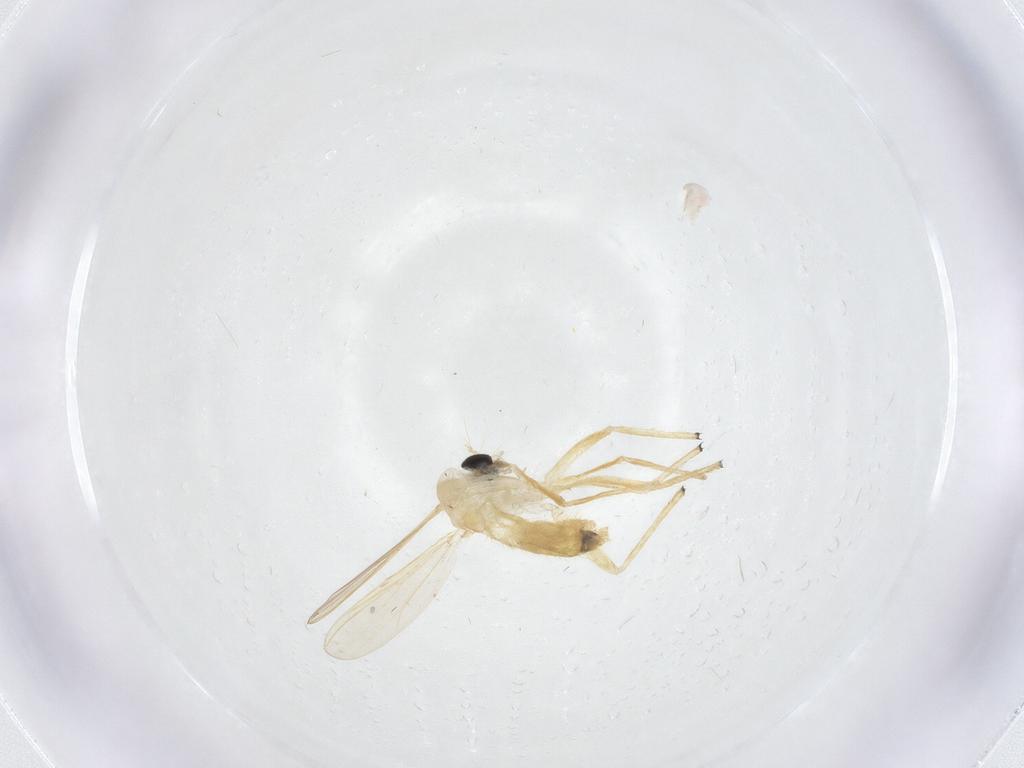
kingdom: Animalia
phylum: Arthropoda
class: Insecta
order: Diptera
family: Chironomidae
